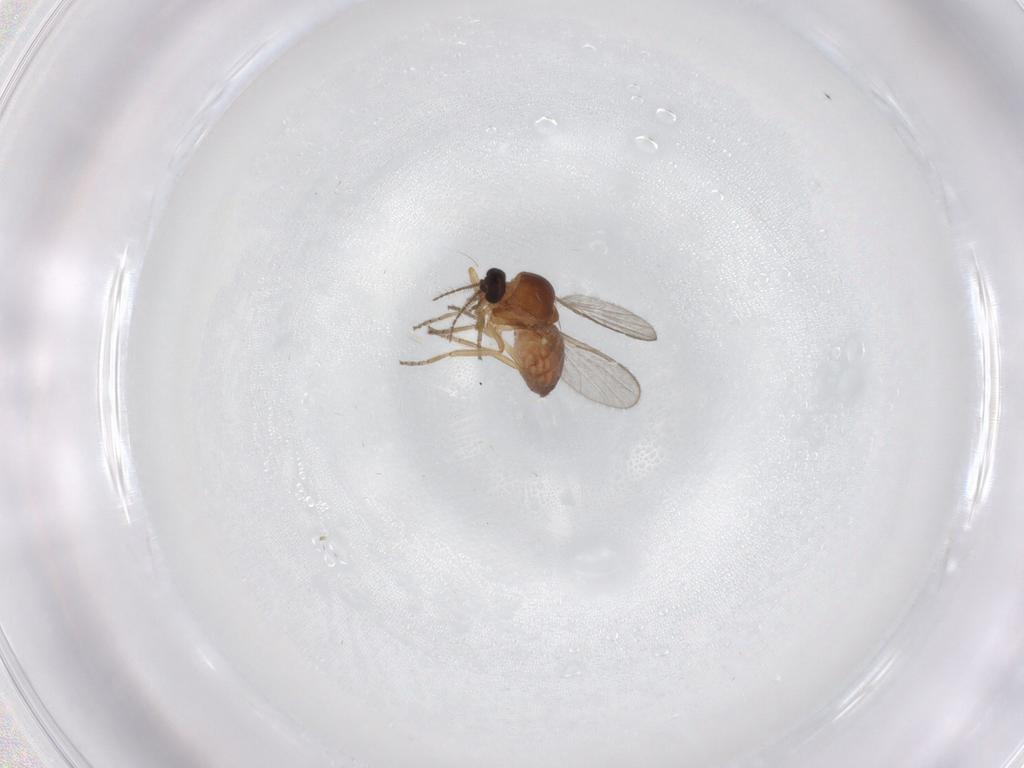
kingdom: Animalia
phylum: Arthropoda
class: Insecta
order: Diptera
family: Ceratopogonidae
